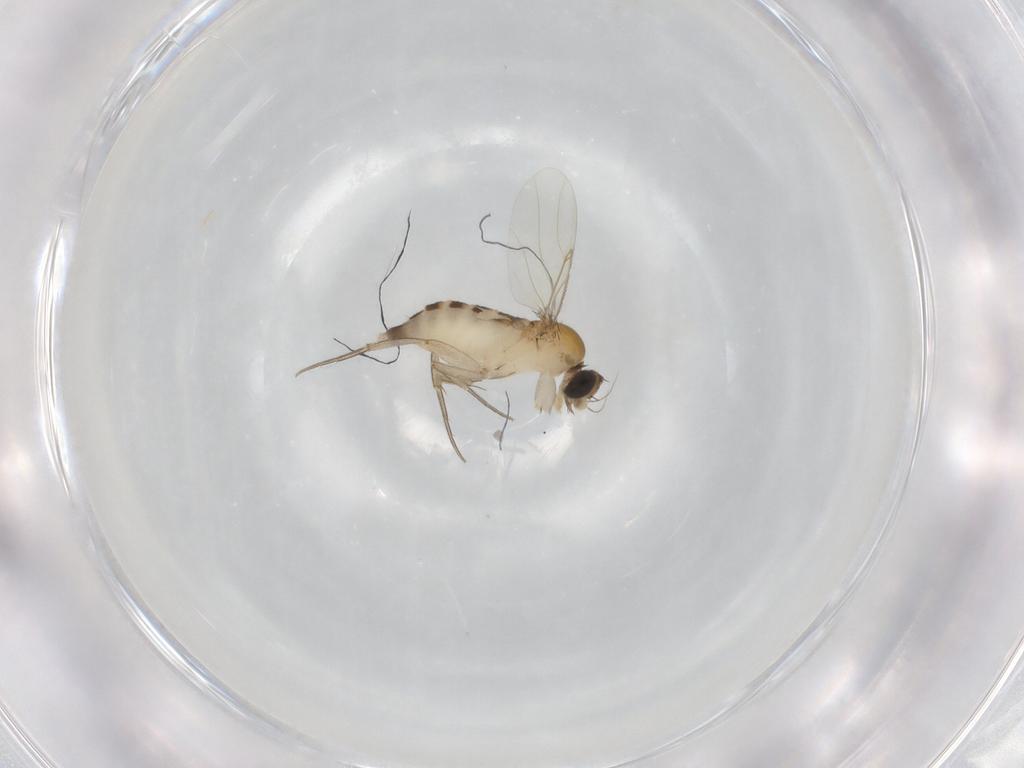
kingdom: Animalia
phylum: Arthropoda
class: Insecta
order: Diptera
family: Phoridae
